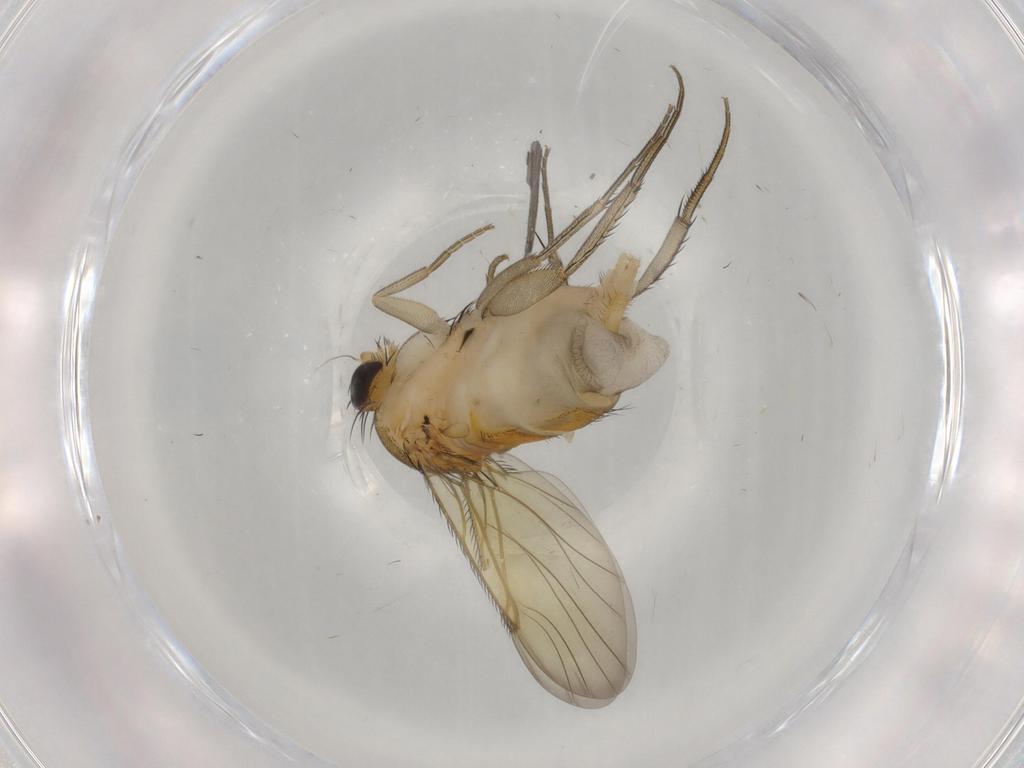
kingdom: Animalia
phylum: Arthropoda
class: Insecta
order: Diptera
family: Phoridae
